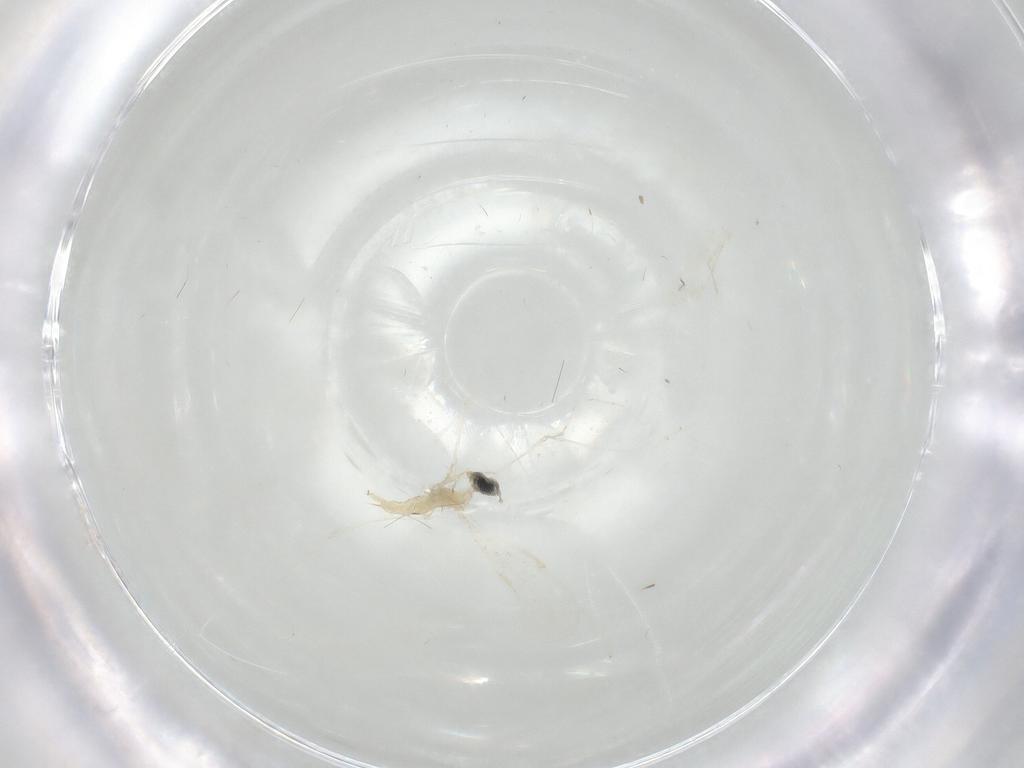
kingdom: Animalia
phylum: Arthropoda
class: Insecta
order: Diptera
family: Cecidomyiidae
